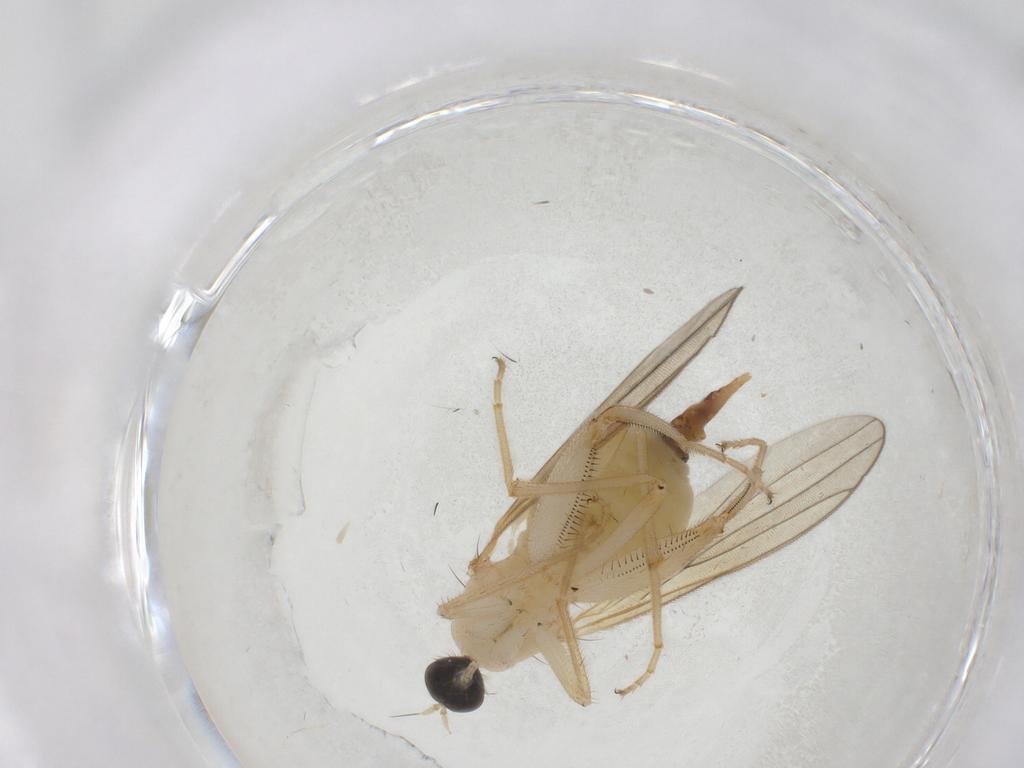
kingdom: Animalia
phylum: Arthropoda
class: Insecta
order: Diptera
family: Hybotidae
